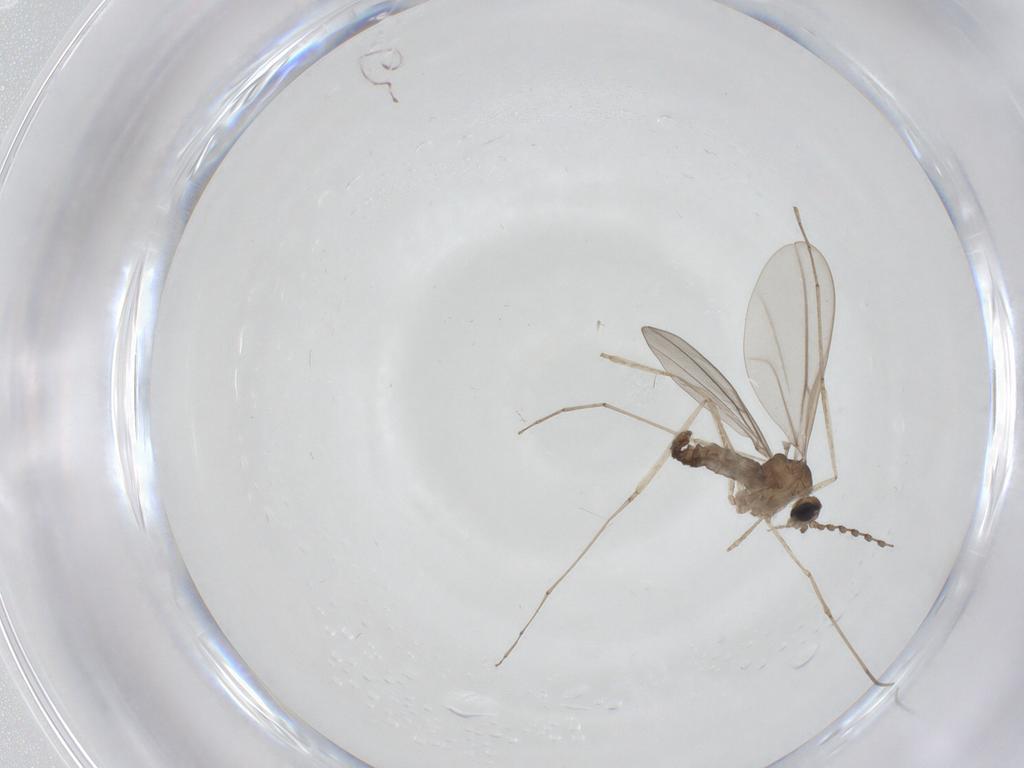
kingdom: Animalia
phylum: Arthropoda
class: Insecta
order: Diptera
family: Cecidomyiidae
